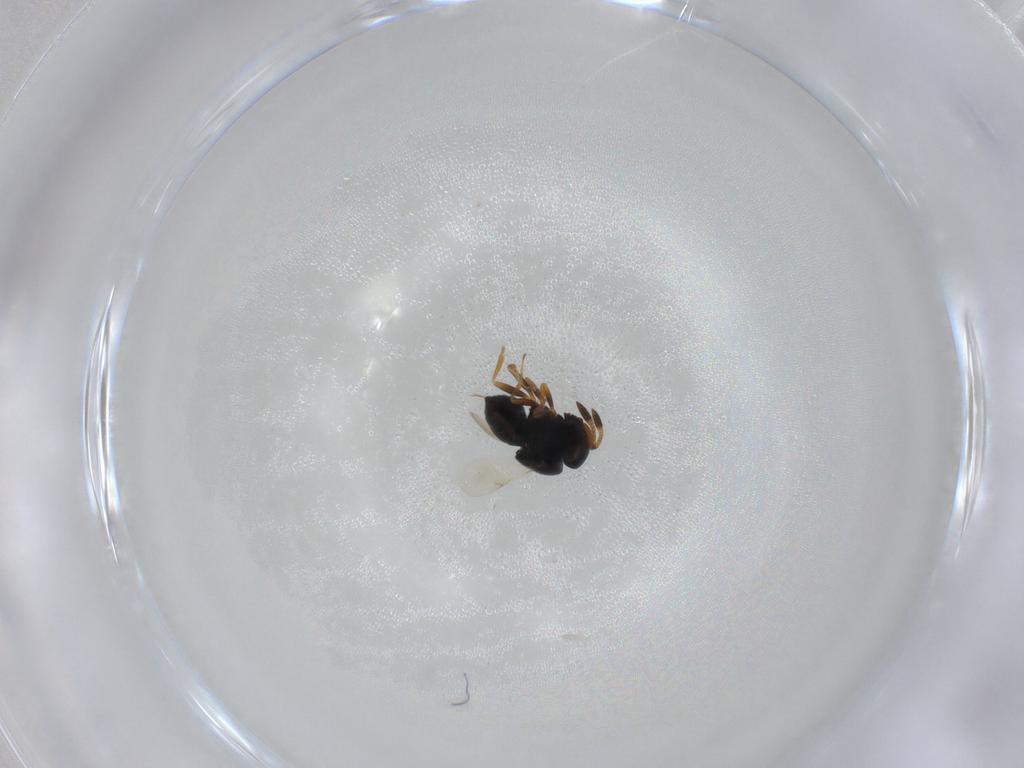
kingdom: Animalia
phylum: Arthropoda
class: Insecta
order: Hymenoptera
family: Scelionidae
